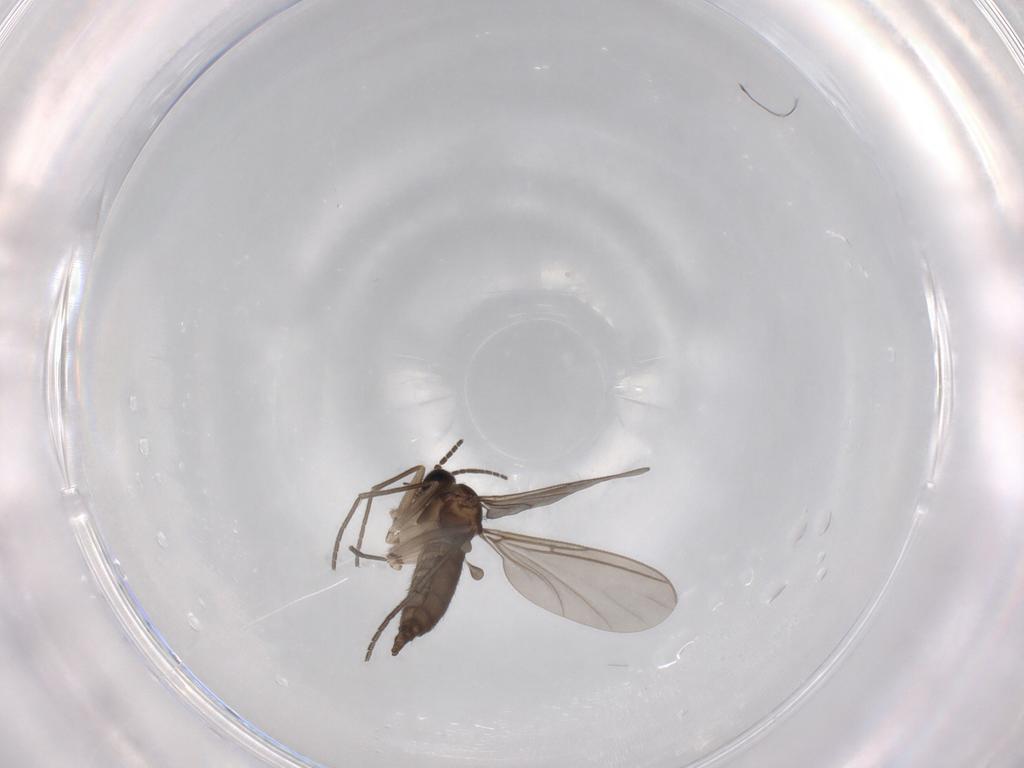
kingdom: Animalia
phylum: Arthropoda
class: Insecta
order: Diptera
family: Sciaridae
